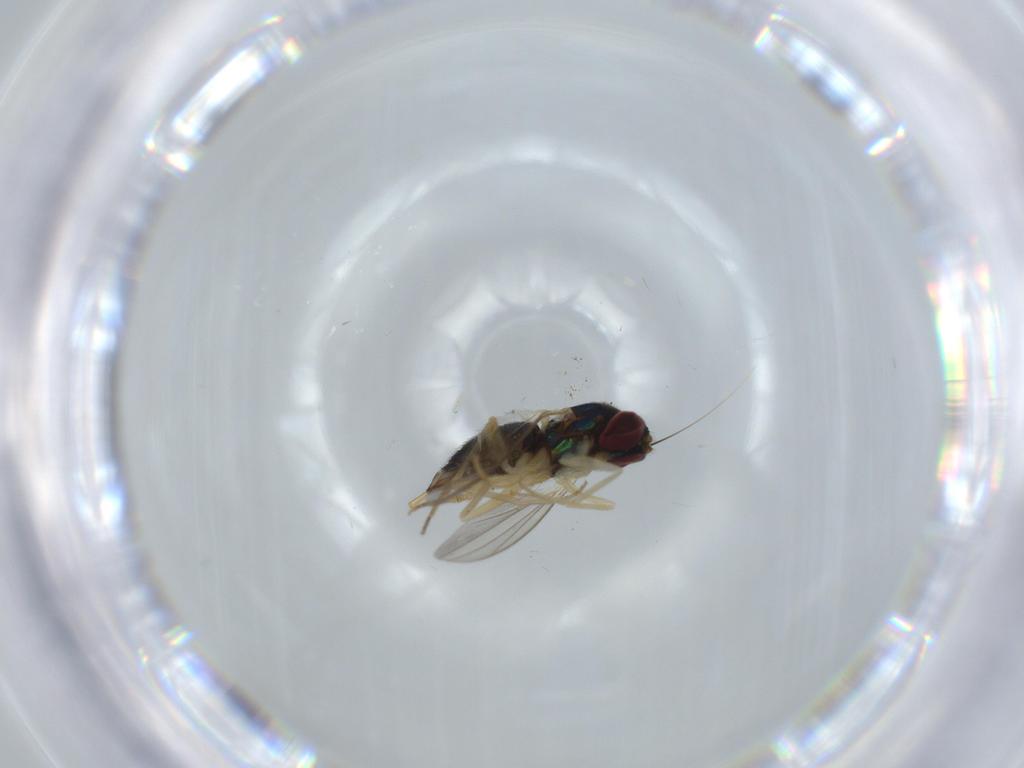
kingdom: Animalia
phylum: Arthropoda
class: Insecta
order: Diptera
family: Dolichopodidae
